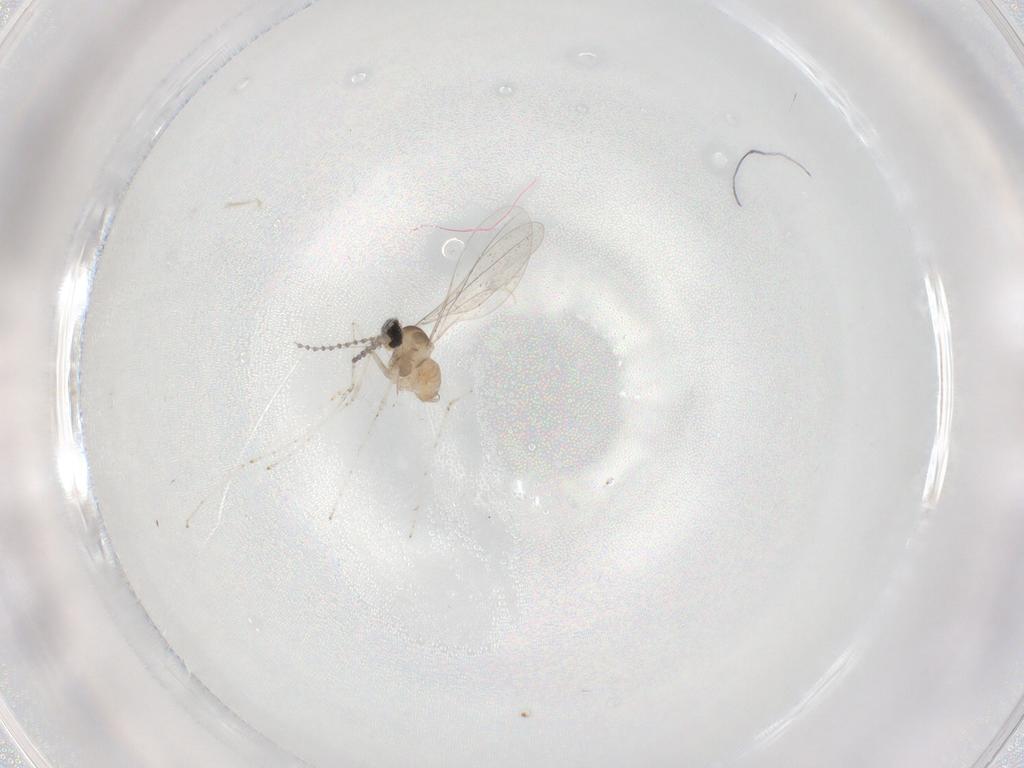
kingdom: Animalia
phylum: Arthropoda
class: Insecta
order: Diptera
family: Cecidomyiidae
